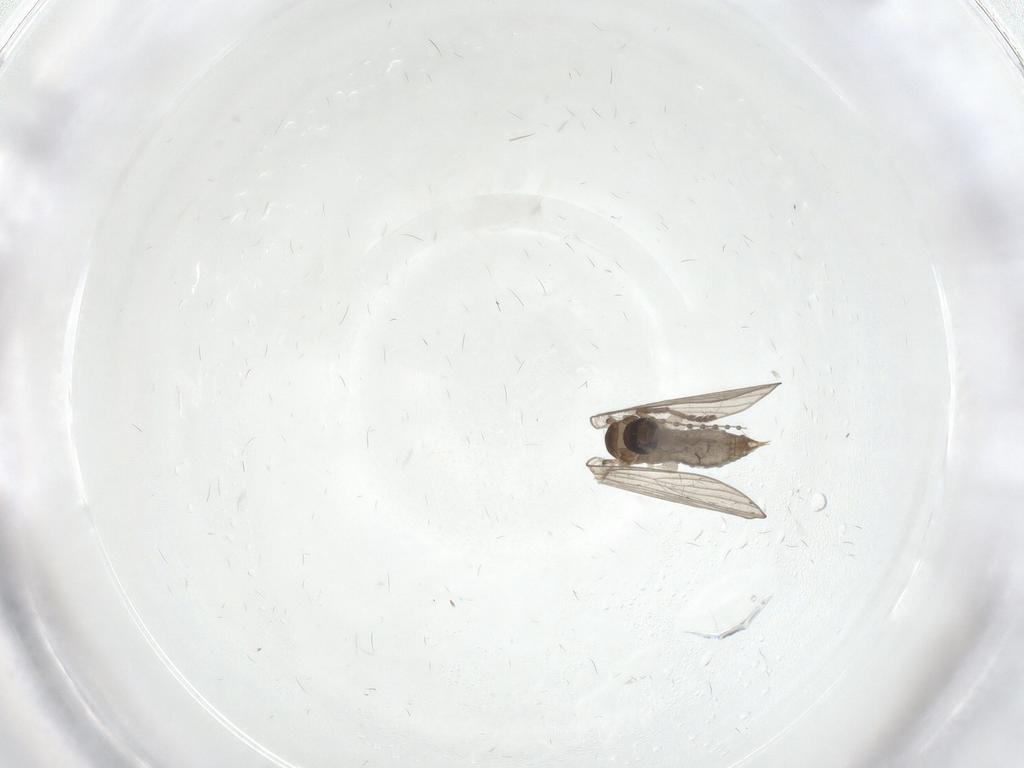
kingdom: Animalia
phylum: Arthropoda
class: Insecta
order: Diptera
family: Psychodidae
